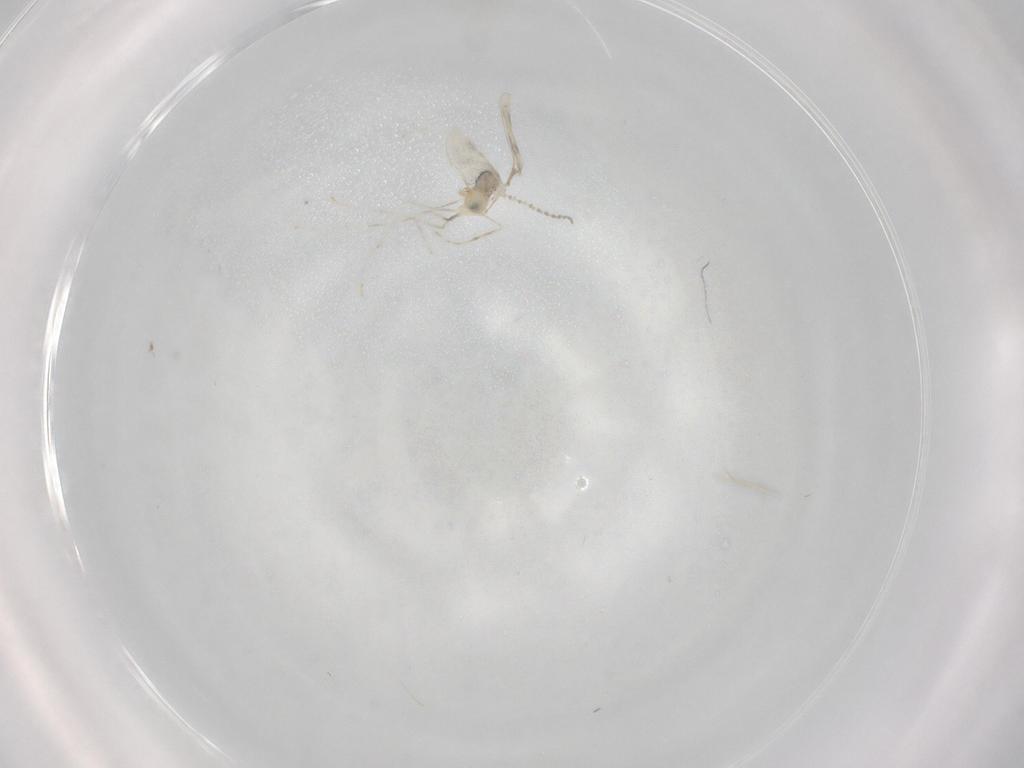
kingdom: Animalia
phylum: Arthropoda
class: Insecta
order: Diptera
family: Cecidomyiidae
